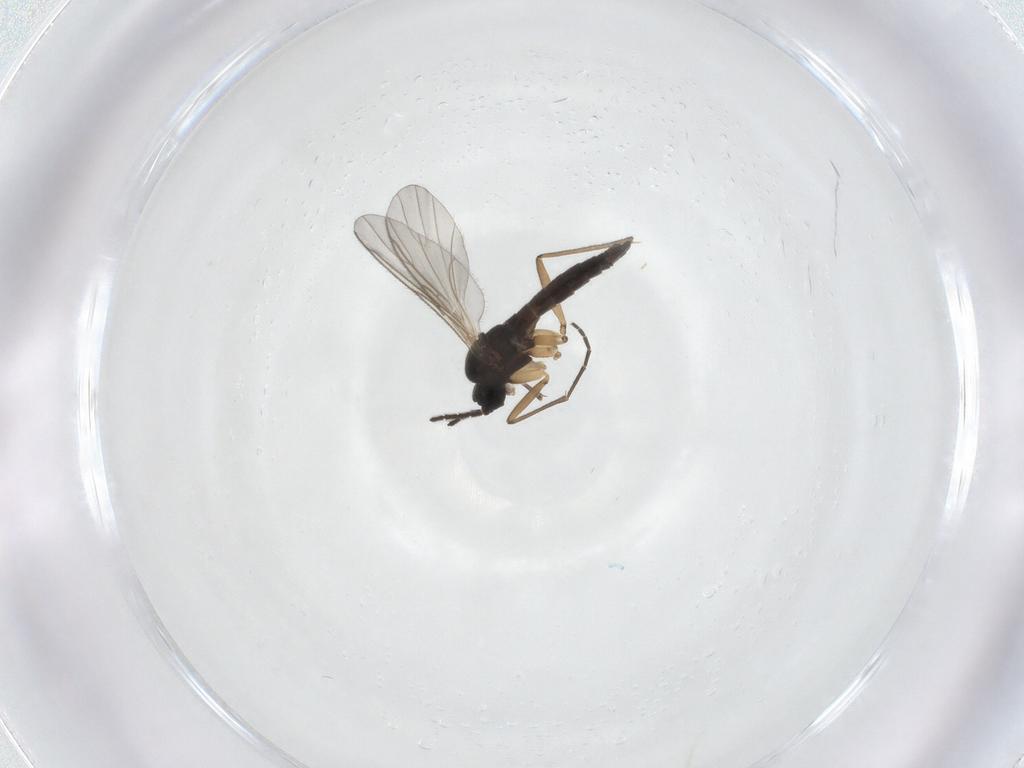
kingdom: Animalia
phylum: Arthropoda
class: Insecta
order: Diptera
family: Sciaridae
